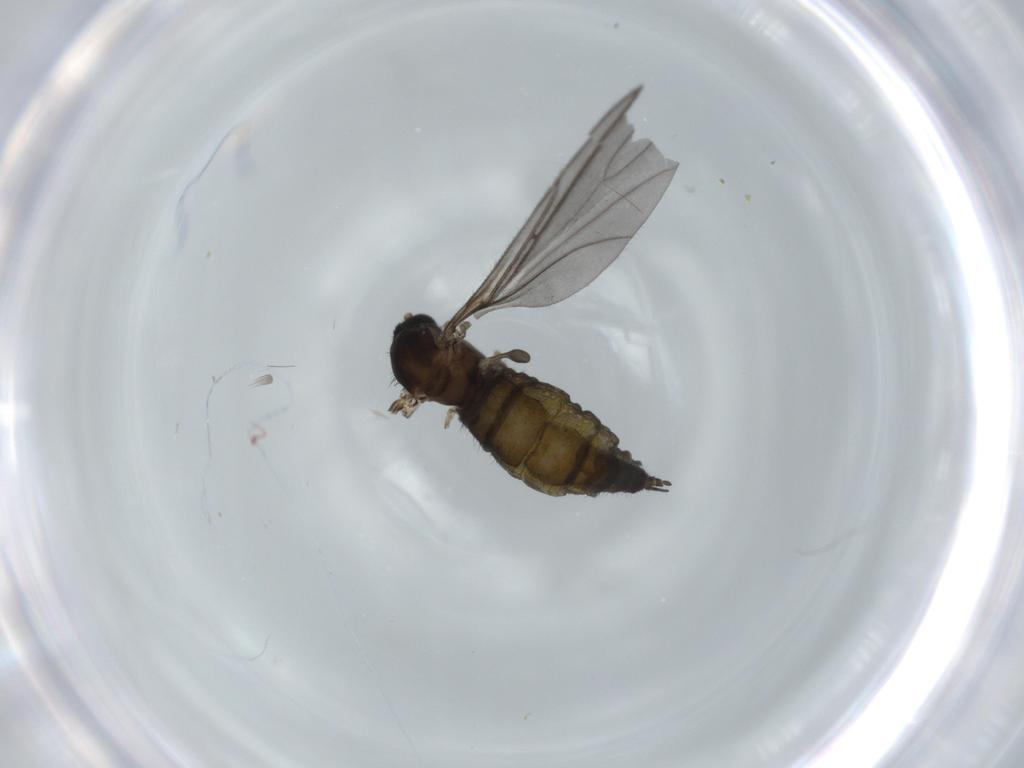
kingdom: Animalia
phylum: Arthropoda
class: Insecta
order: Diptera
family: Sciaridae
